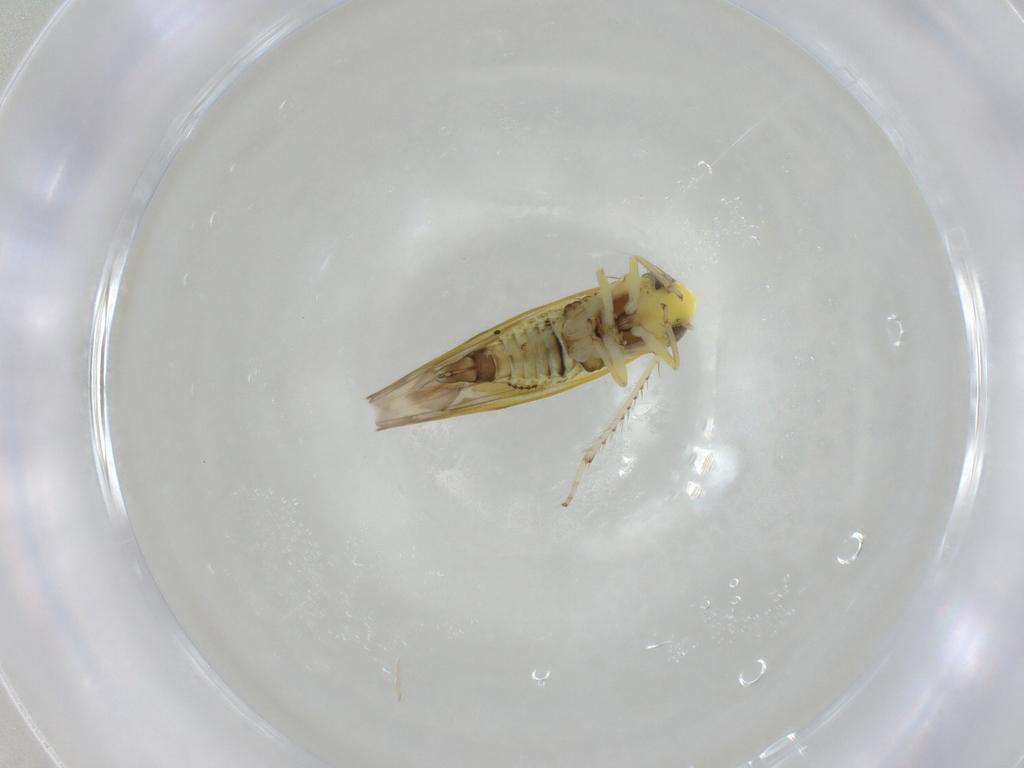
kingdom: Animalia
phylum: Arthropoda
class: Insecta
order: Hemiptera
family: Cicadellidae
